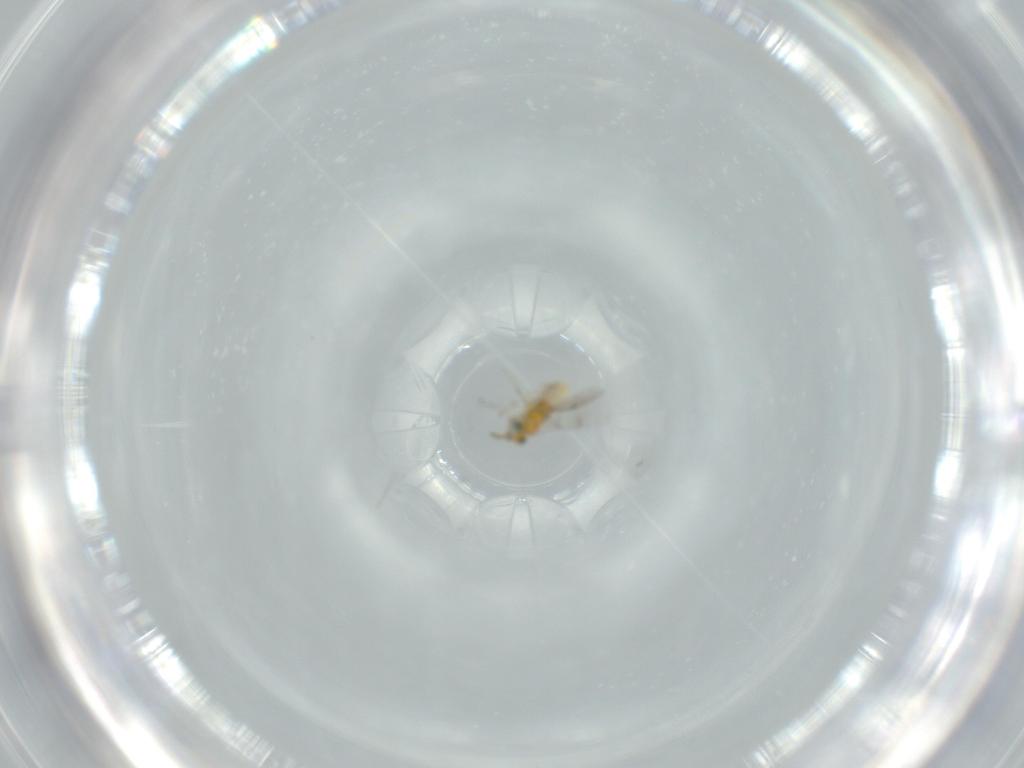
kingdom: Animalia
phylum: Arthropoda
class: Insecta
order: Hymenoptera
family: Aphelinidae
